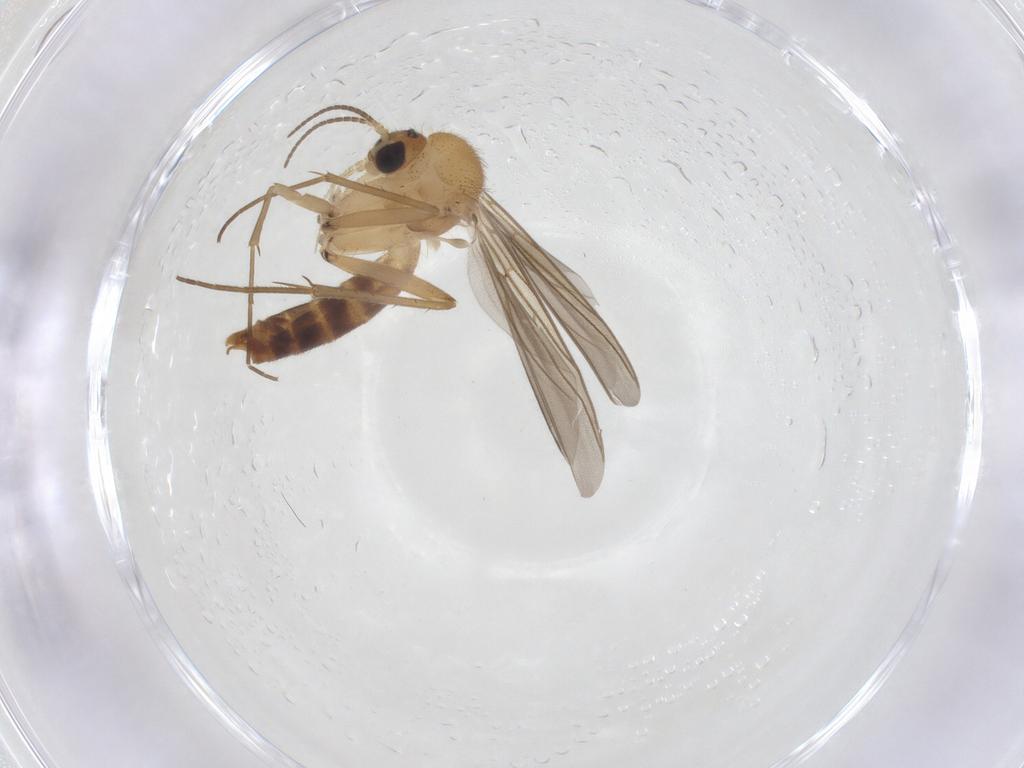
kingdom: Animalia
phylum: Arthropoda
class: Insecta
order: Diptera
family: Mycetophilidae
